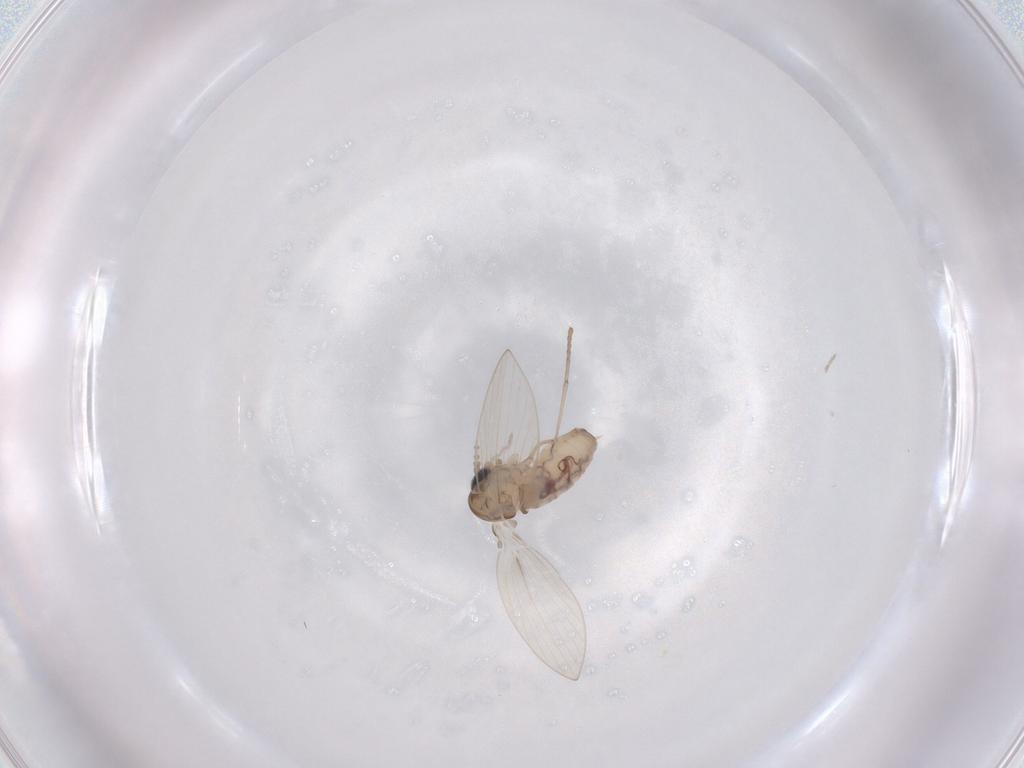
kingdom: Animalia
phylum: Arthropoda
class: Insecta
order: Diptera
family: Psychodidae
